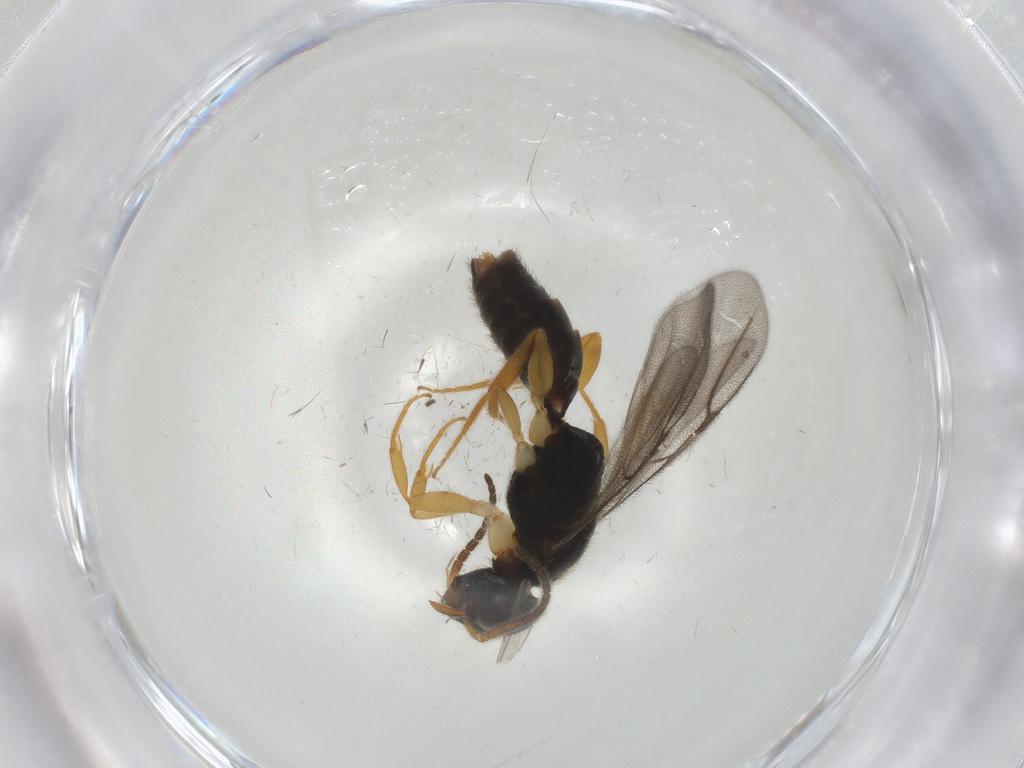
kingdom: Animalia
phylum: Arthropoda
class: Insecta
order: Hymenoptera
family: Bethylidae
